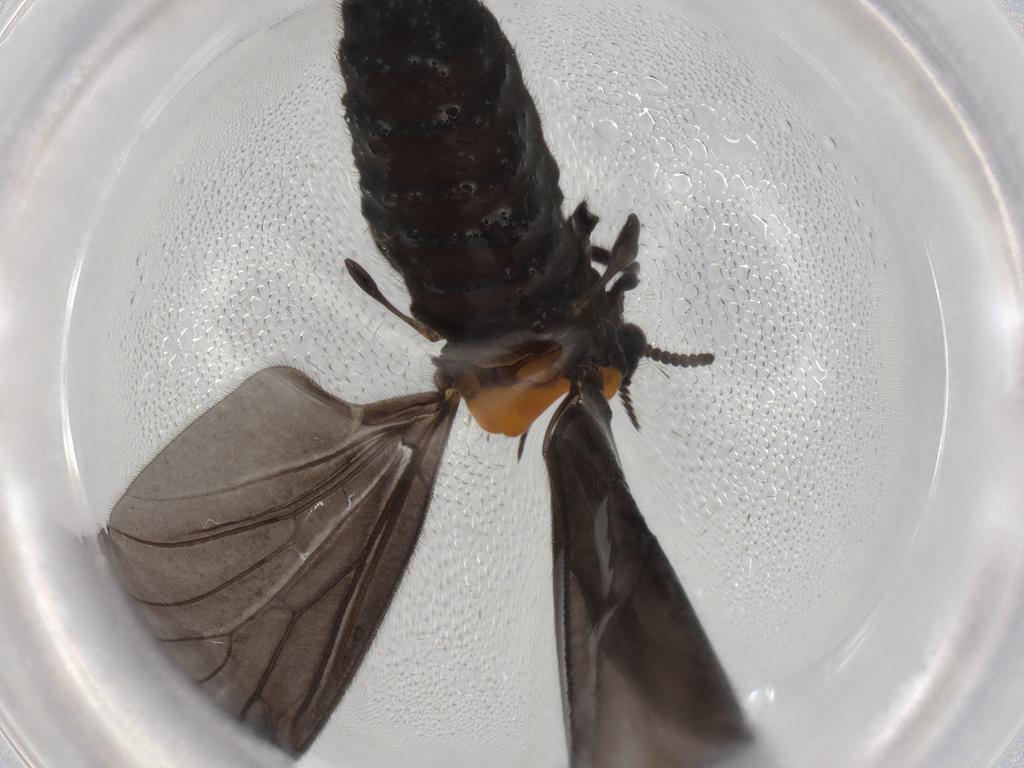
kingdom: Animalia
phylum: Arthropoda
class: Insecta
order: Diptera
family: Bibionidae
